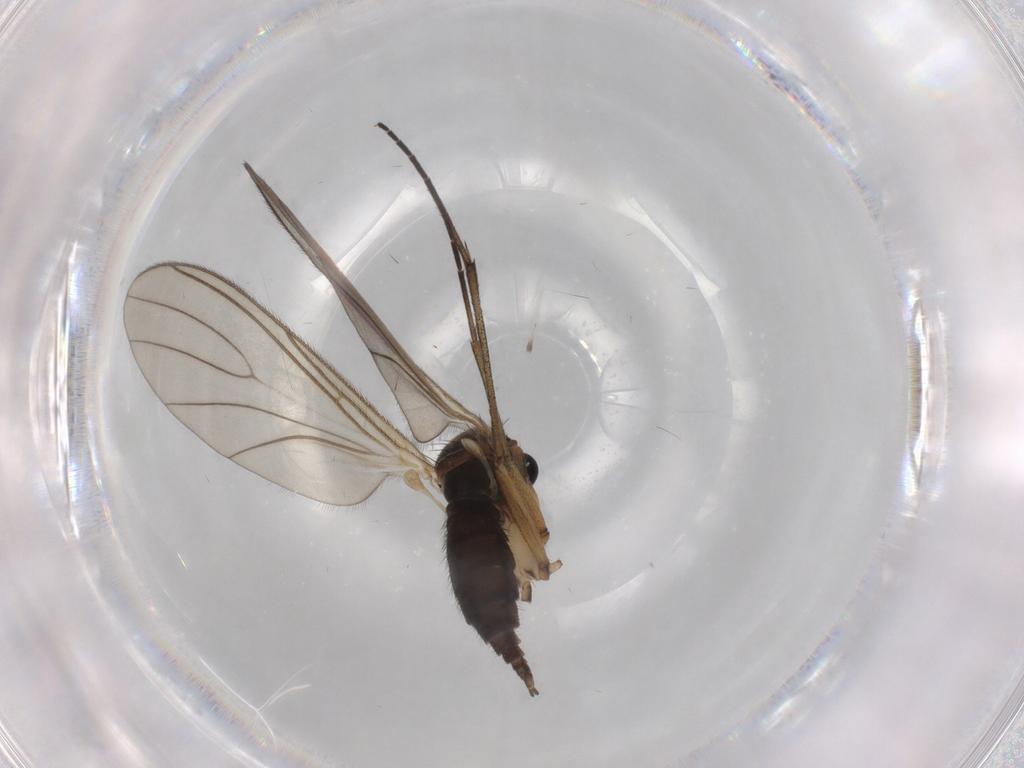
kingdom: Animalia
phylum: Arthropoda
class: Insecta
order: Diptera
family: Sciaridae
